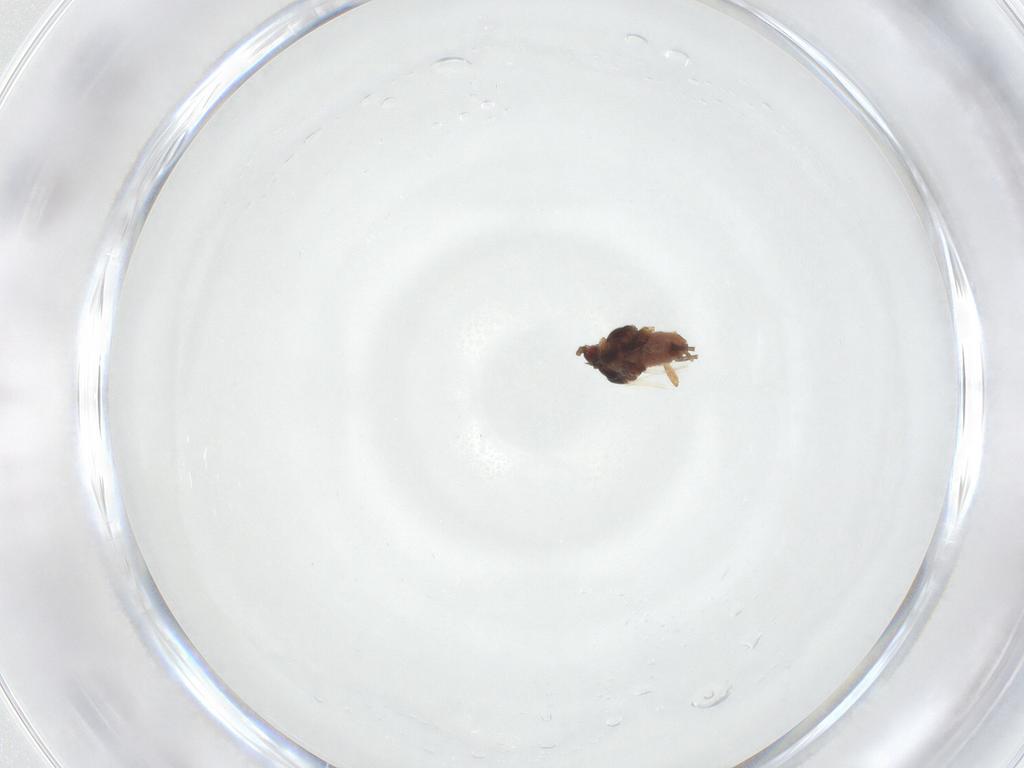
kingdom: Animalia
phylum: Arthropoda
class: Insecta
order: Hemiptera
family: Aphididae
